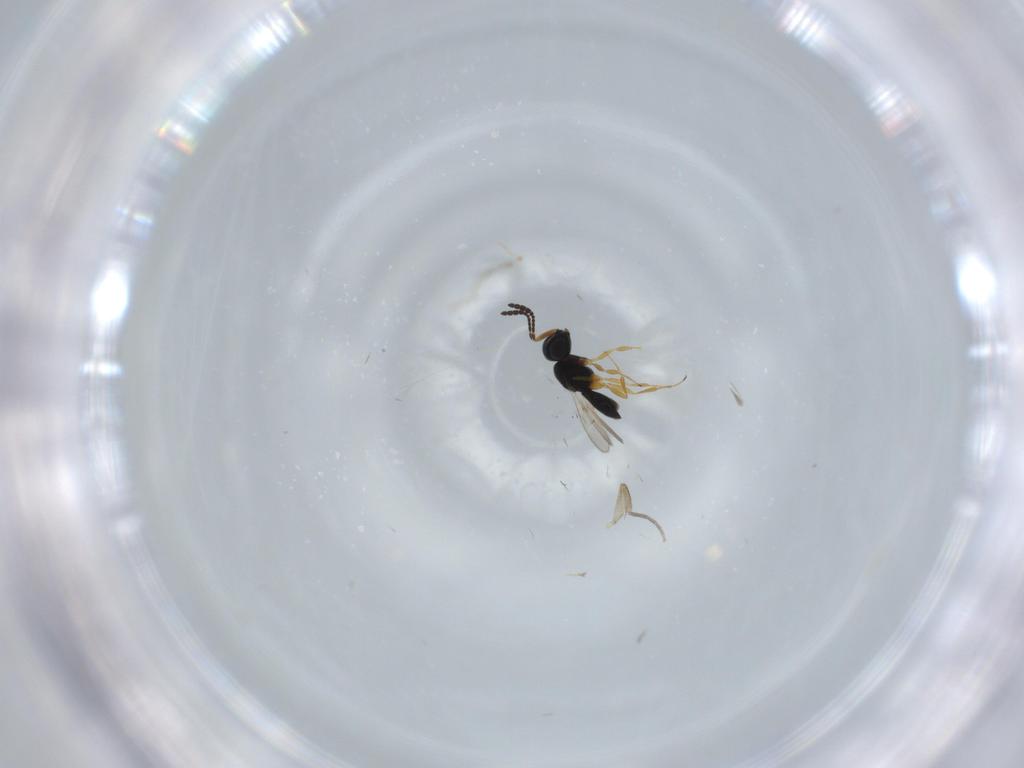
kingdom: Animalia
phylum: Arthropoda
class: Insecta
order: Hymenoptera
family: Scelionidae
